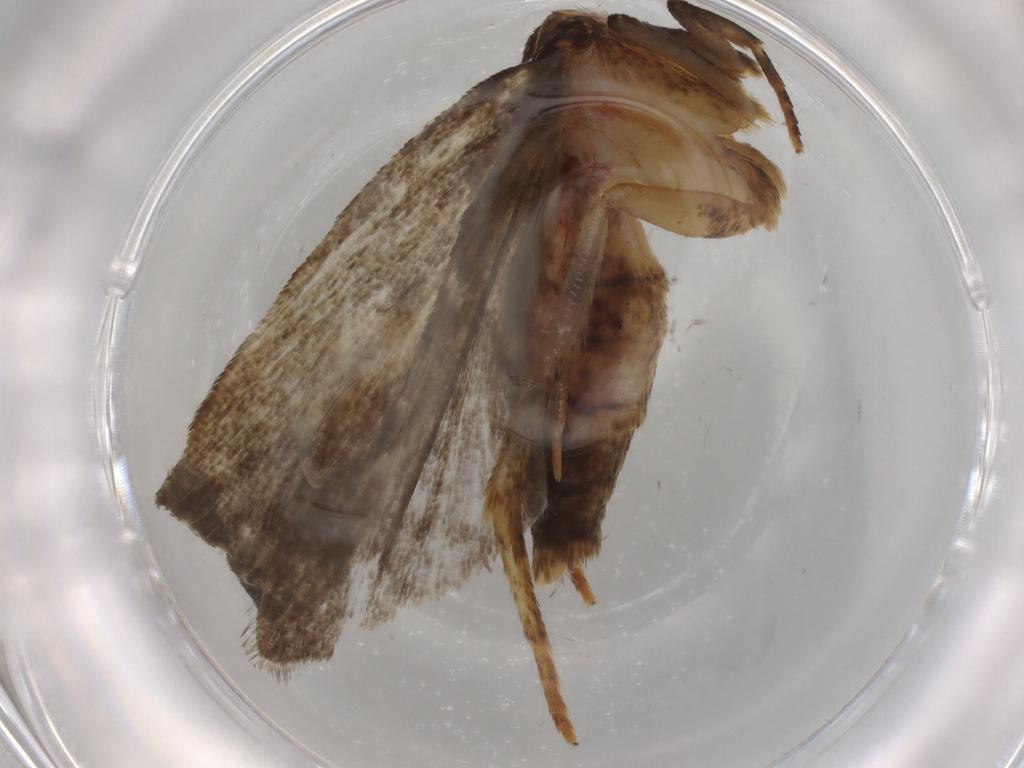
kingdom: Animalia
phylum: Arthropoda
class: Insecta
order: Lepidoptera
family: Autostichidae
